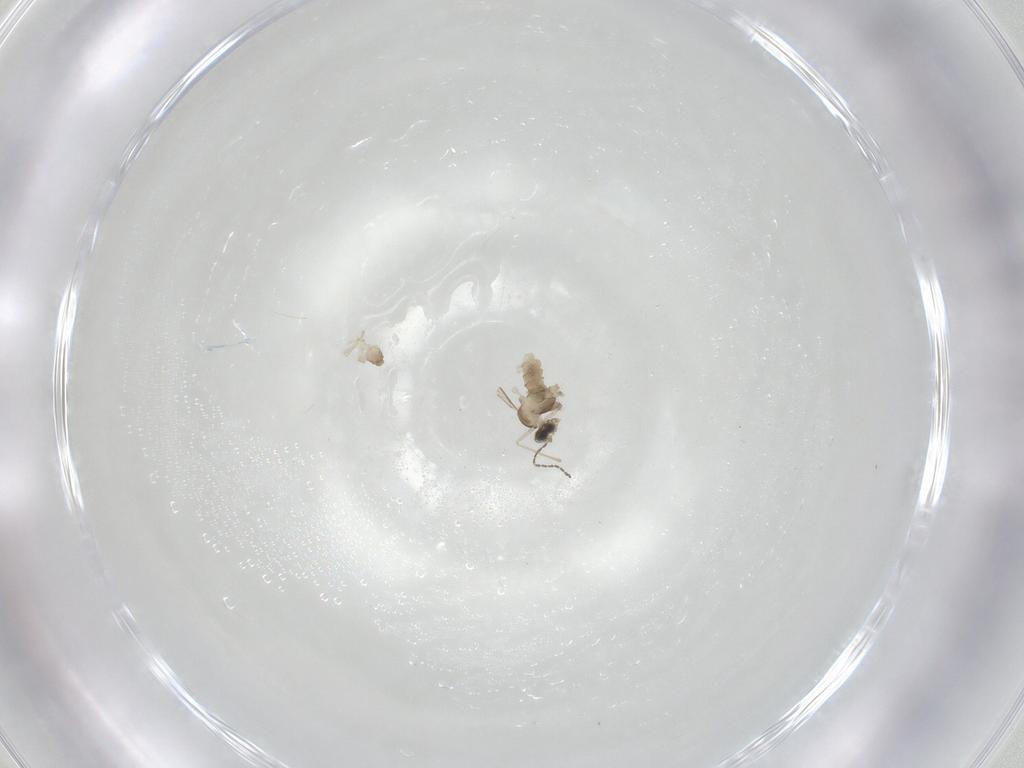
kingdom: Animalia
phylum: Arthropoda
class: Insecta
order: Diptera
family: Cecidomyiidae
